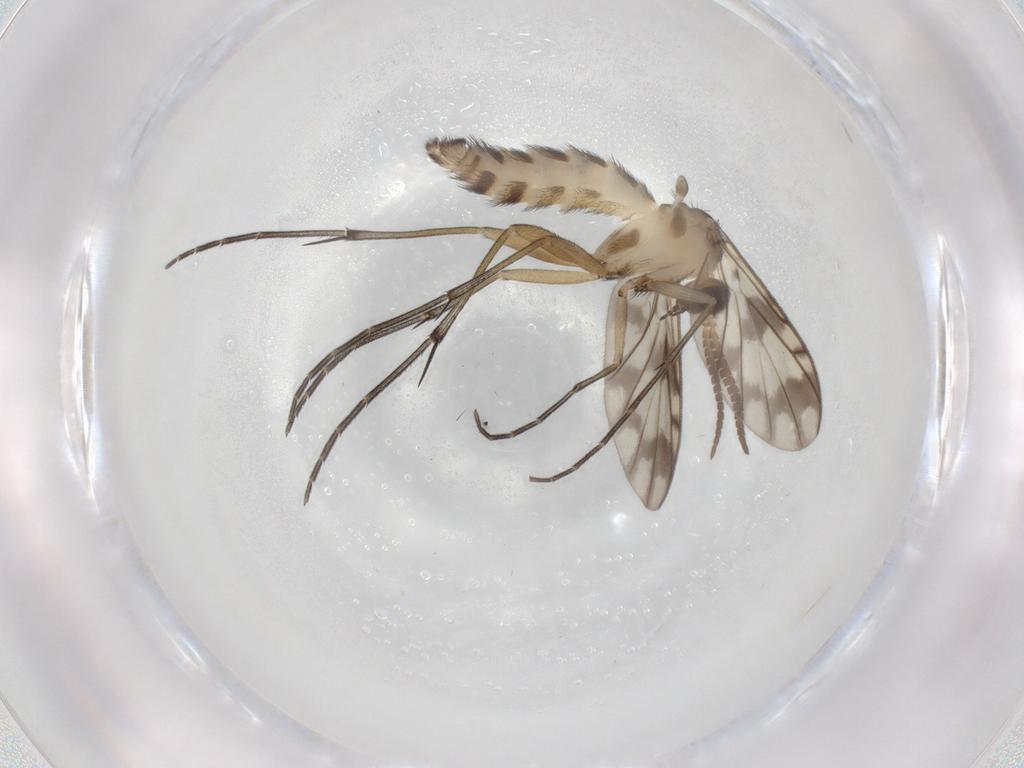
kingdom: Animalia
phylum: Arthropoda
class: Insecta
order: Diptera
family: Keroplatidae
